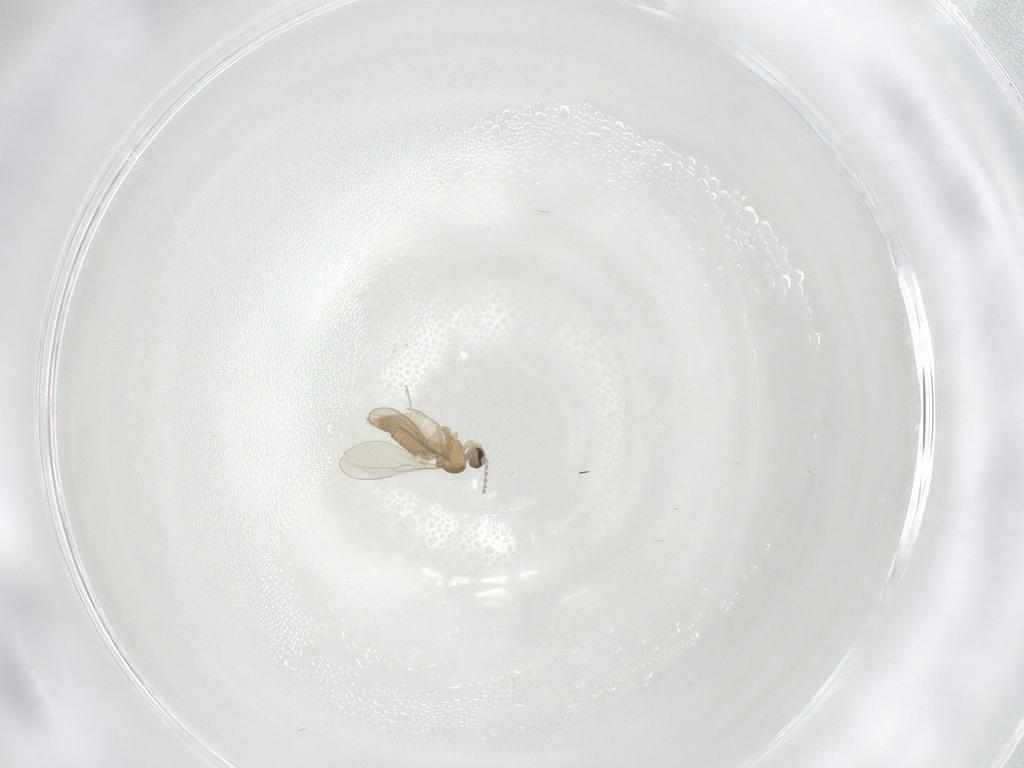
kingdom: Animalia
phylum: Arthropoda
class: Insecta
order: Diptera
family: Cecidomyiidae
